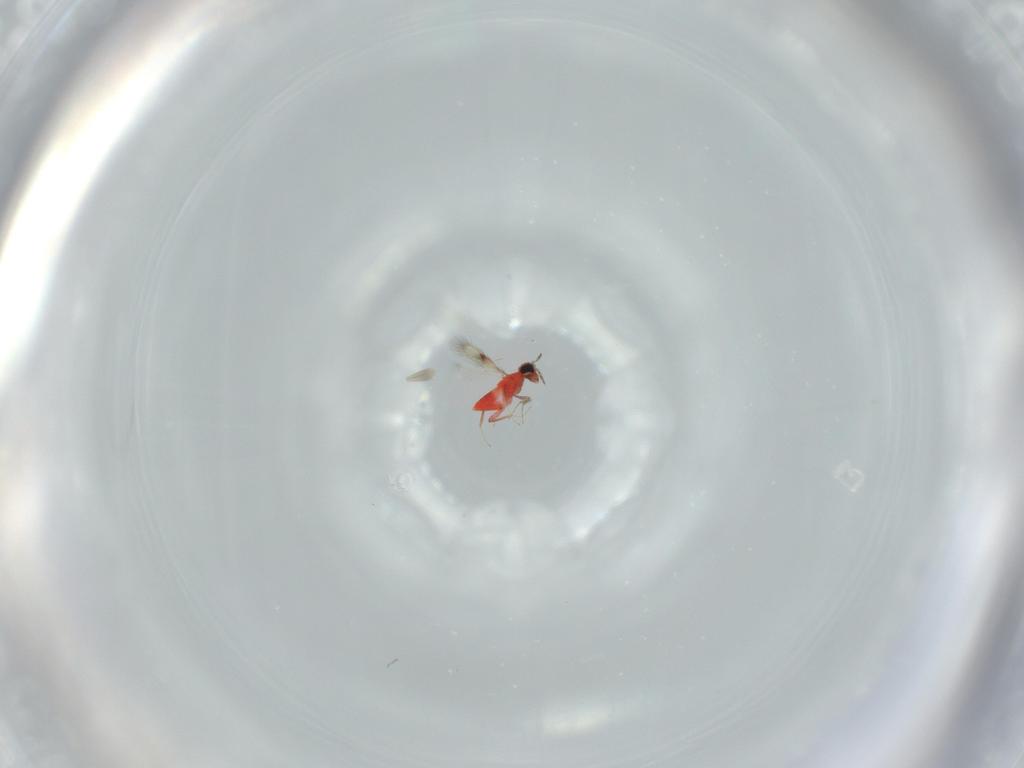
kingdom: Animalia
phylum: Arthropoda
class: Insecta
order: Hymenoptera
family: Trichogrammatidae
